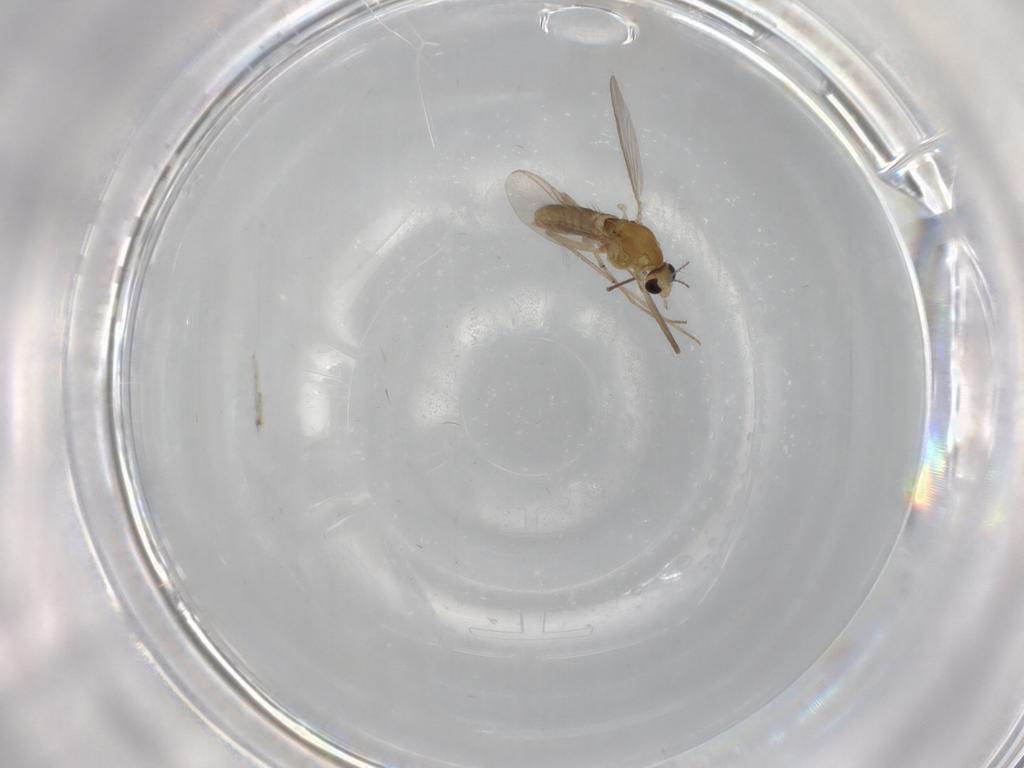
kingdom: Animalia
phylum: Arthropoda
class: Insecta
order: Diptera
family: Chironomidae
